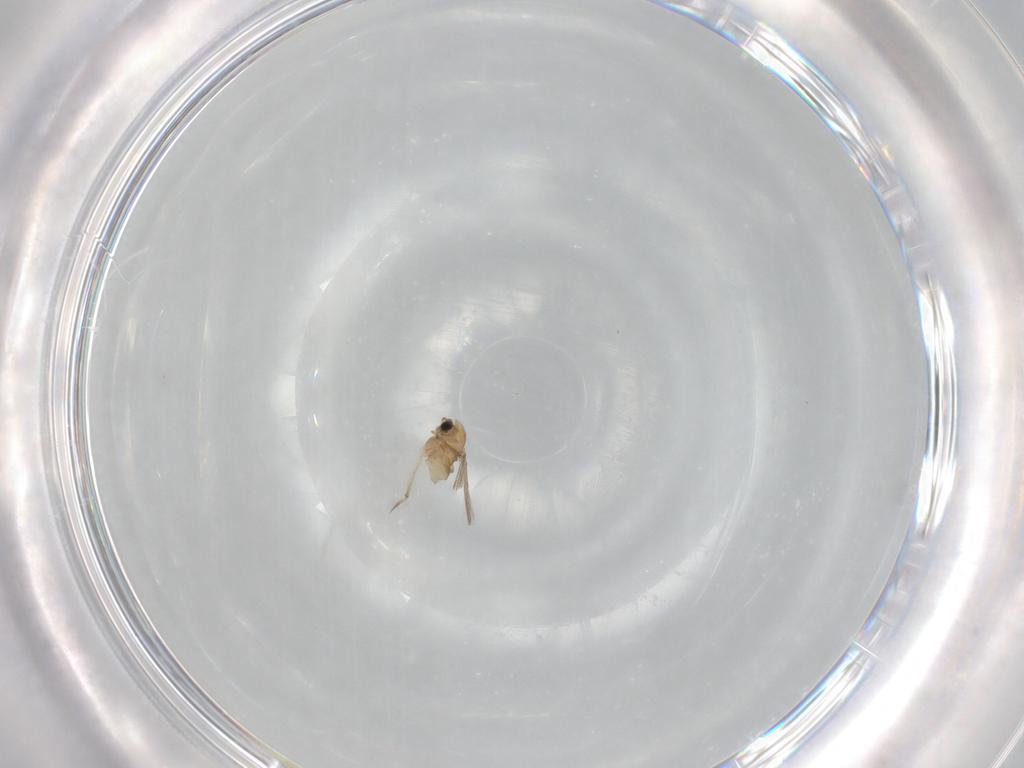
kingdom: Animalia
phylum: Arthropoda
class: Insecta
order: Diptera
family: Chironomidae
